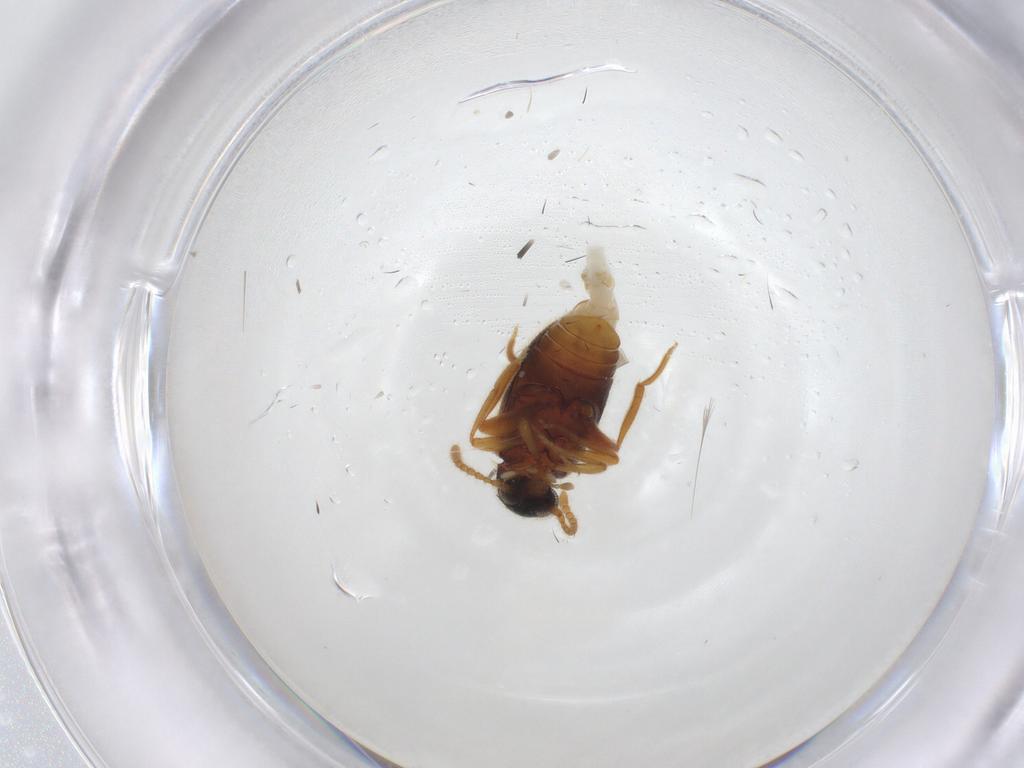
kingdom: Animalia
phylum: Arthropoda
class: Insecta
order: Coleoptera
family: Aderidae
